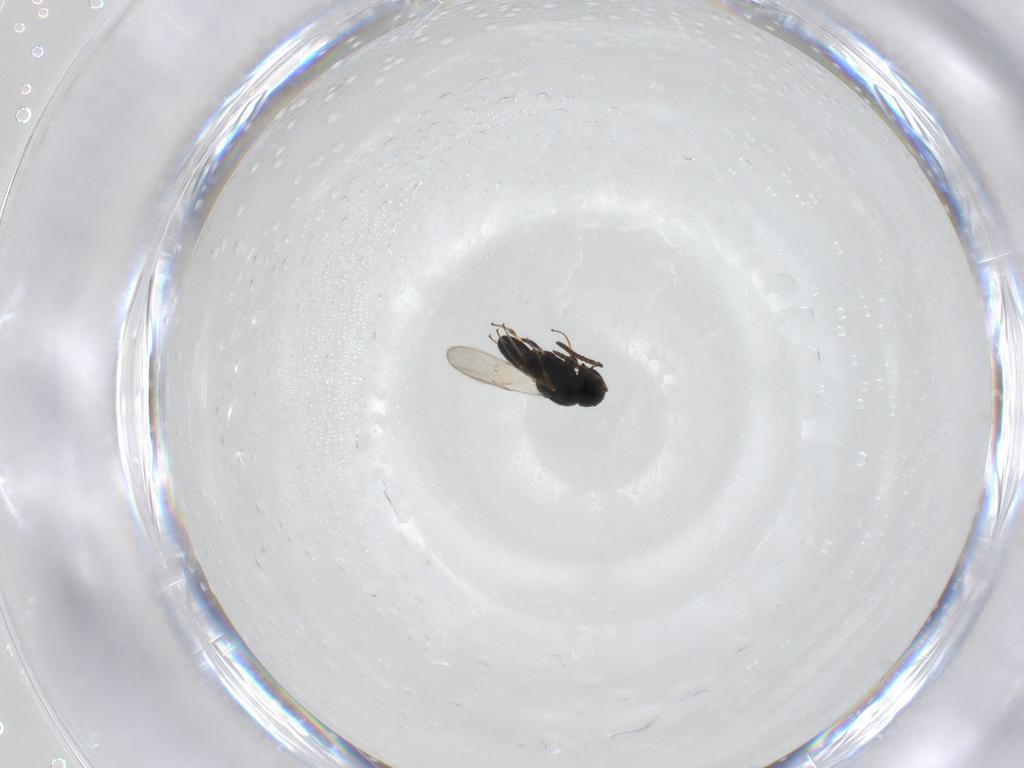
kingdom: Animalia
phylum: Arthropoda
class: Insecta
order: Hymenoptera
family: Scelionidae
